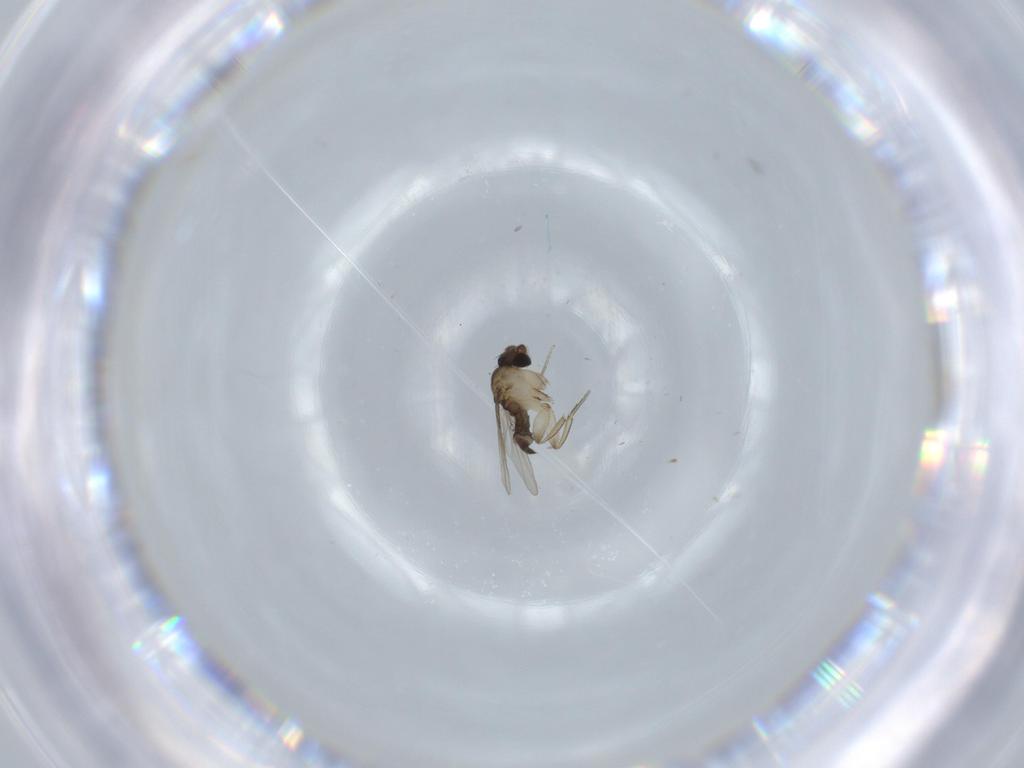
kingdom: Animalia
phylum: Arthropoda
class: Insecta
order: Diptera
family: Phoridae
